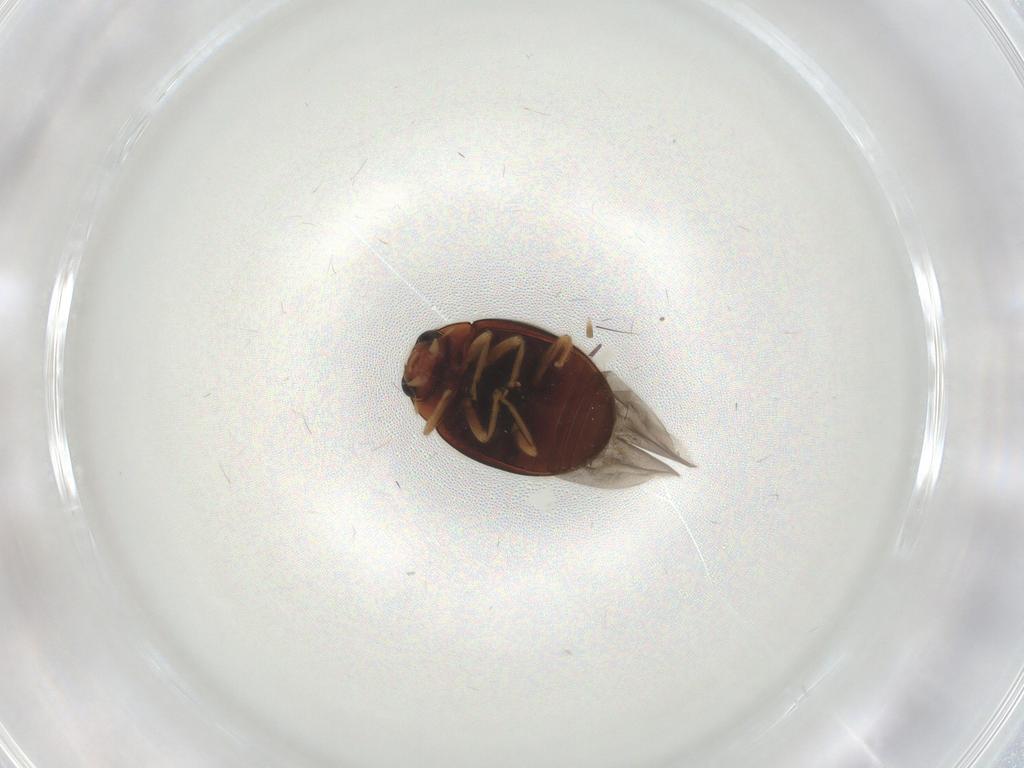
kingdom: Animalia
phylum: Arthropoda
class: Insecta
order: Coleoptera
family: Coccinellidae
